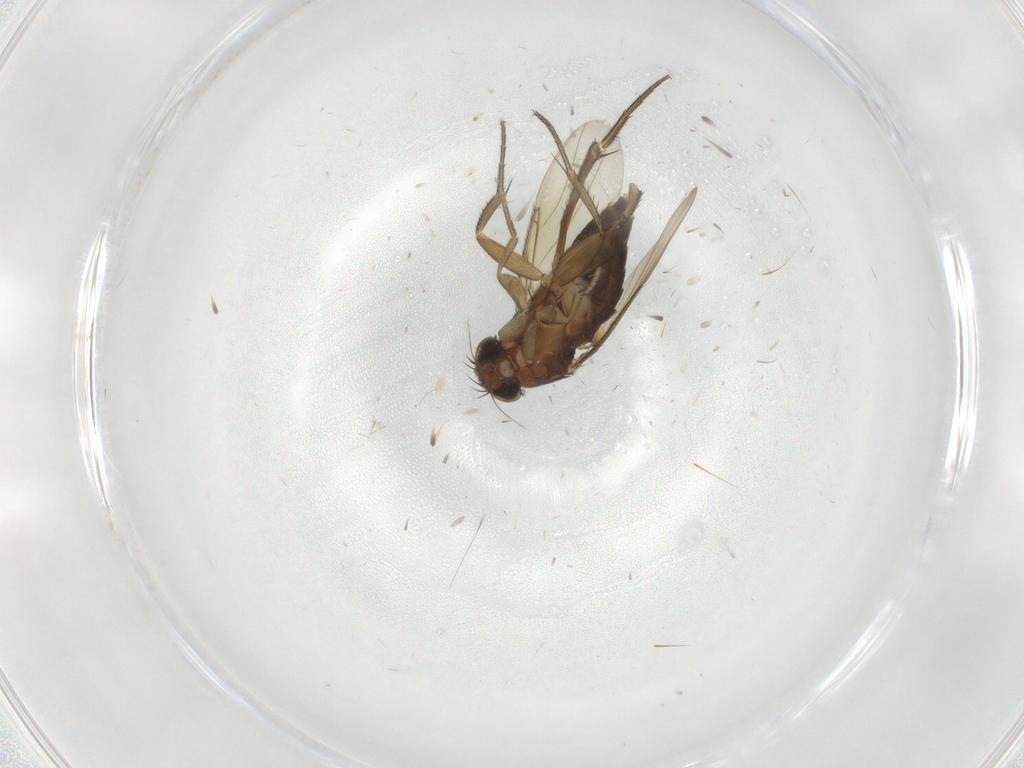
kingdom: Animalia
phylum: Arthropoda
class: Insecta
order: Diptera
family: Phoridae
